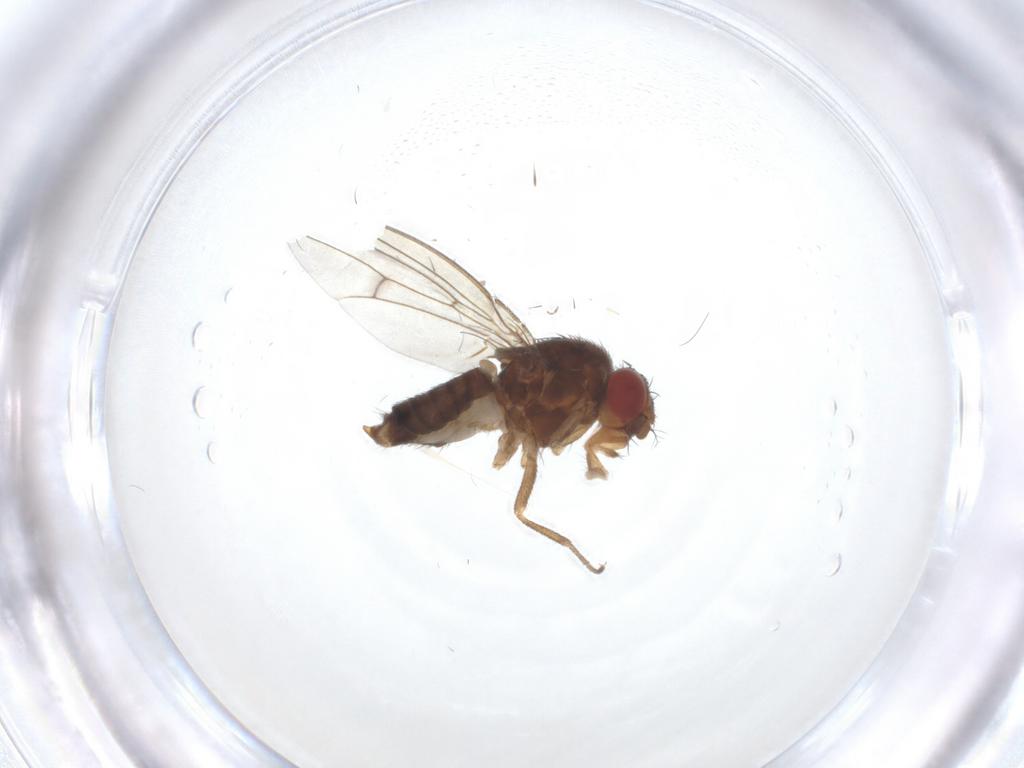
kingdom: Animalia
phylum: Arthropoda
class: Insecta
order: Diptera
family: Drosophilidae
